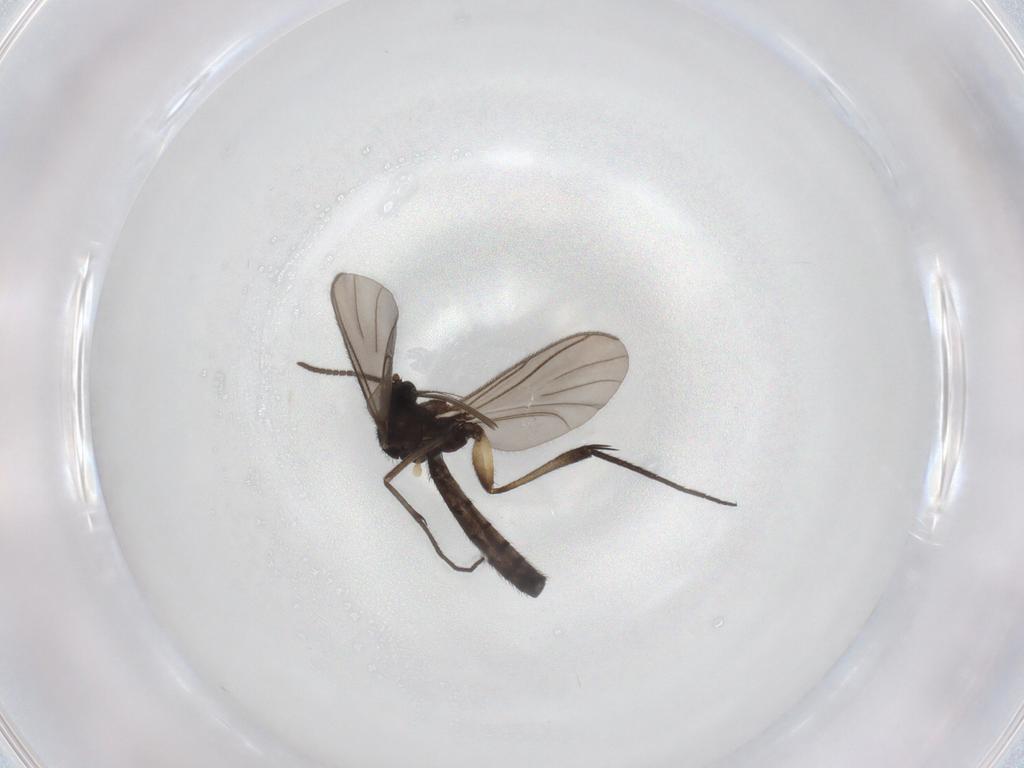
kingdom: Animalia
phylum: Arthropoda
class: Insecta
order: Diptera
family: Keroplatidae
